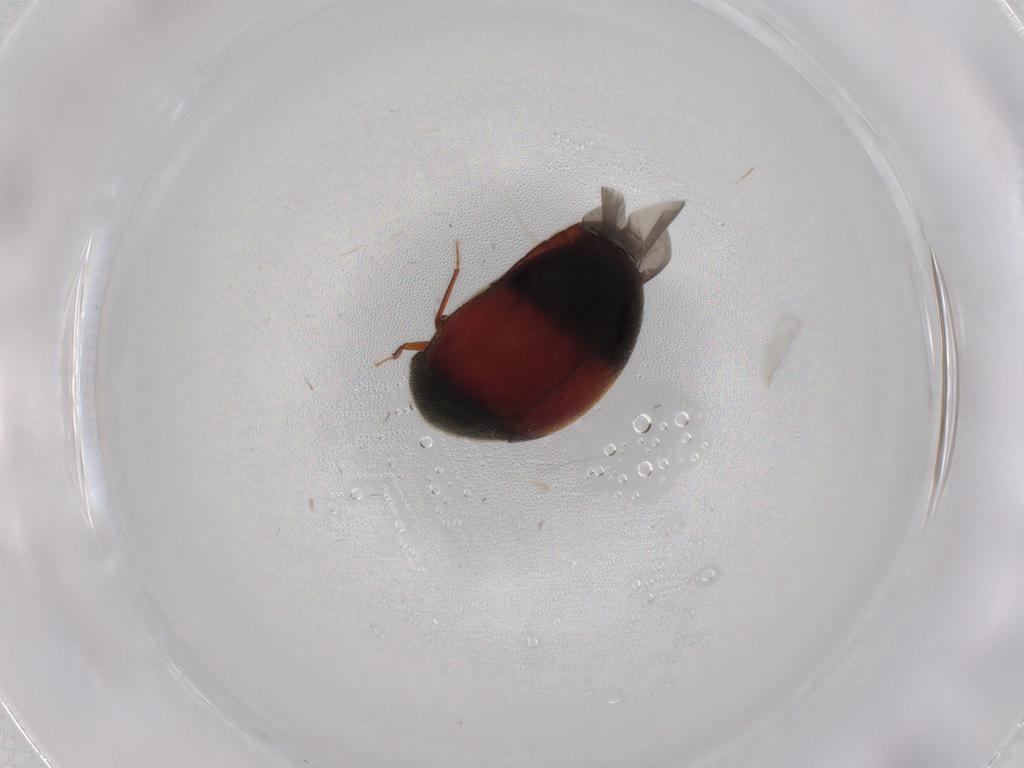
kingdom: Animalia
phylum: Arthropoda
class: Insecta
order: Coleoptera
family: Dermestidae
